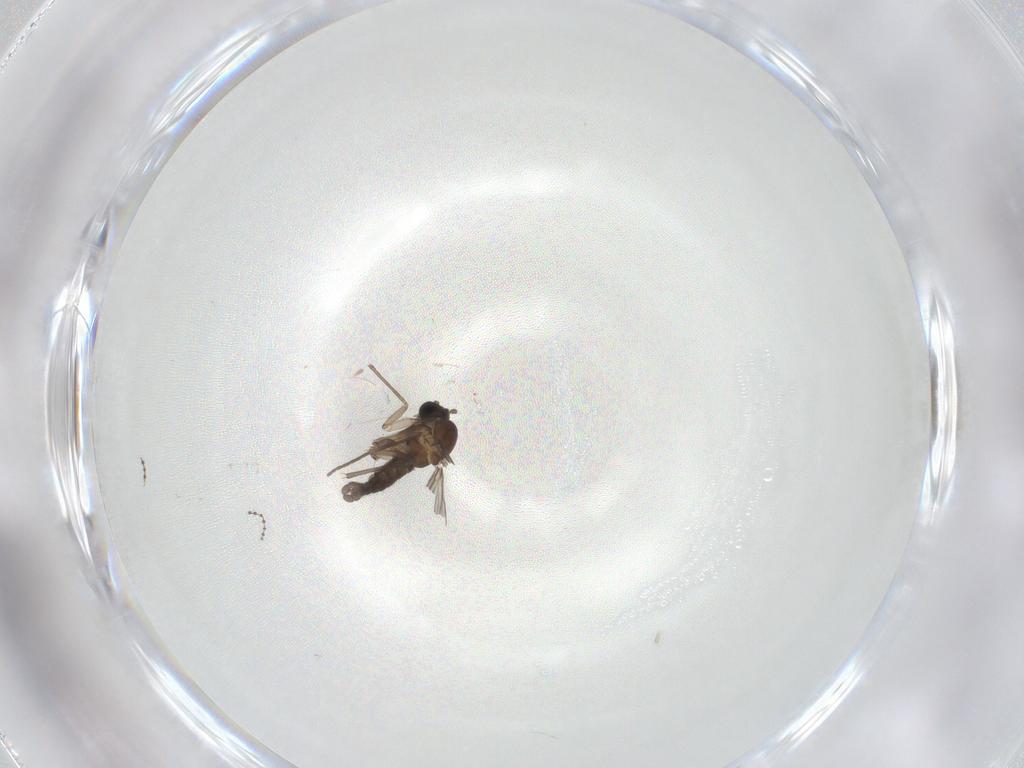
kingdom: Animalia
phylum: Arthropoda
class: Insecta
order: Diptera
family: Sciaridae
